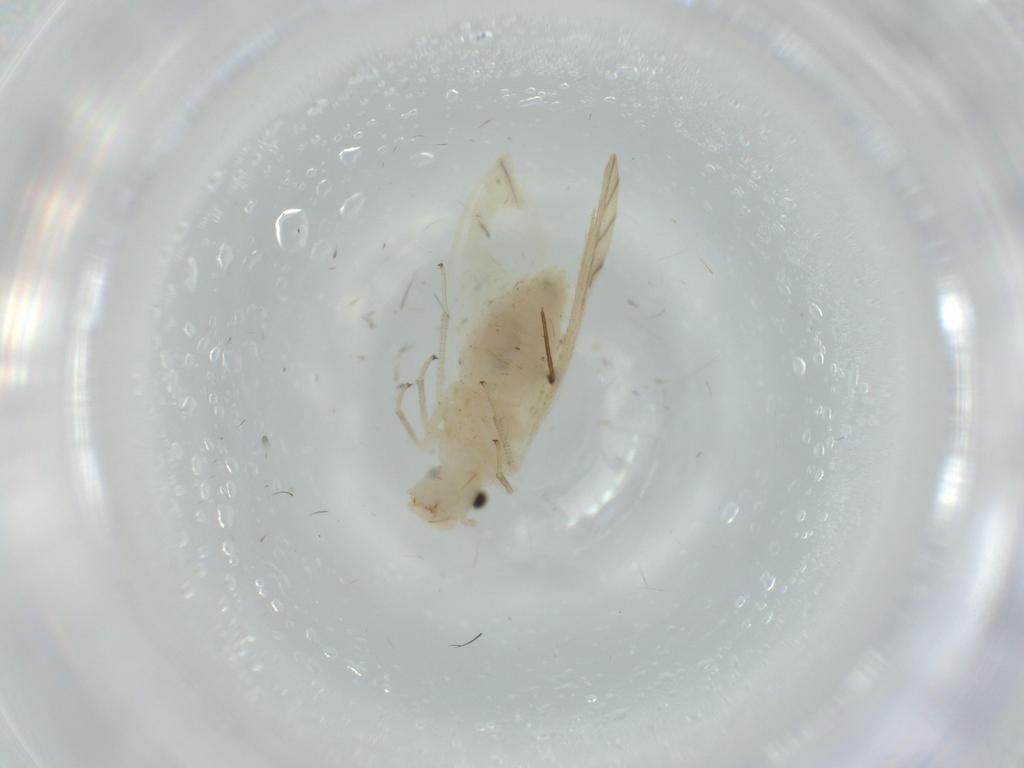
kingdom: Animalia
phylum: Arthropoda
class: Insecta
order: Psocodea
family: Caeciliusidae
